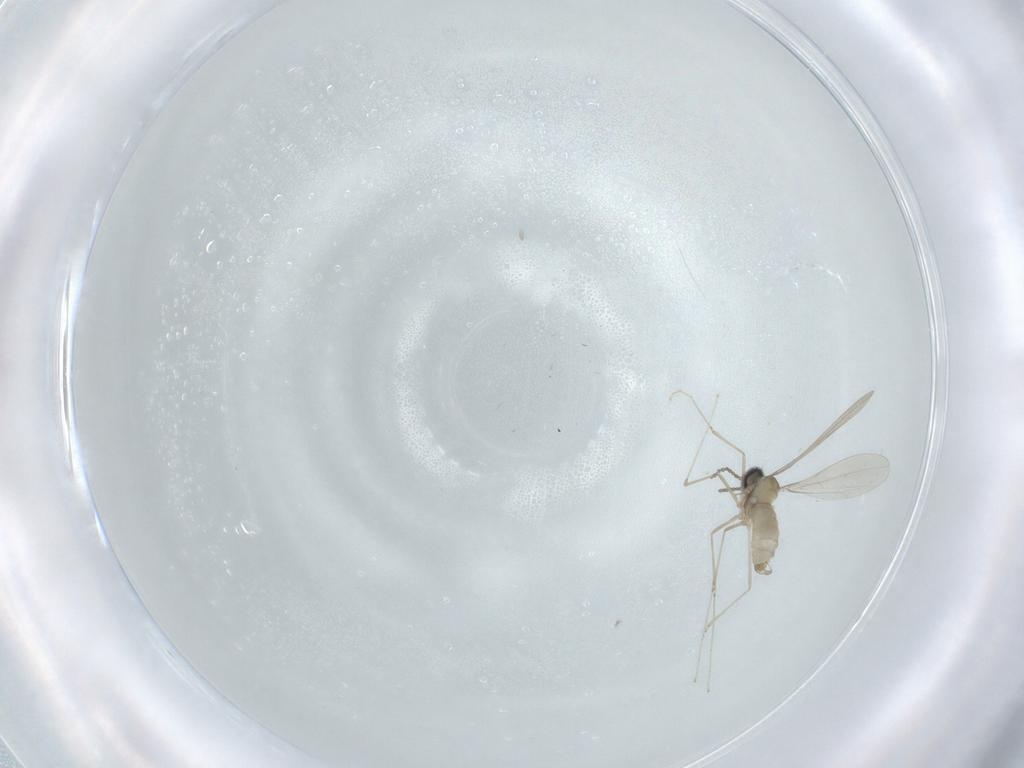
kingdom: Animalia
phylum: Arthropoda
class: Insecta
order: Diptera
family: Cecidomyiidae
